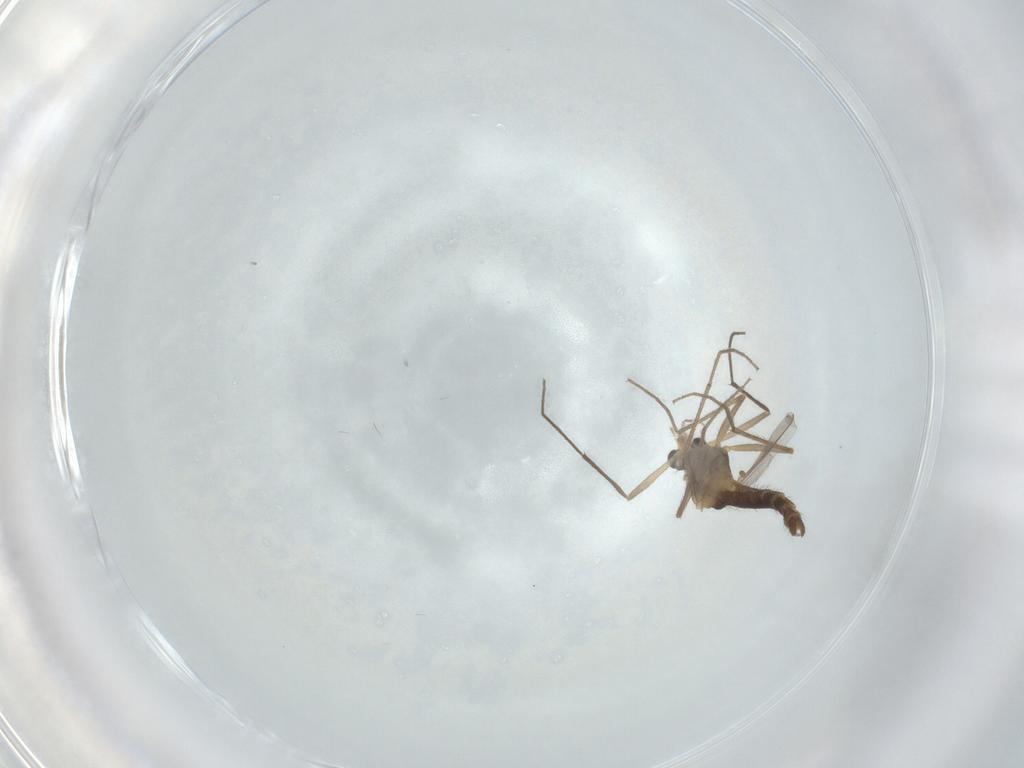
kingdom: Animalia
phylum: Arthropoda
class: Insecta
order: Diptera
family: Chironomidae
